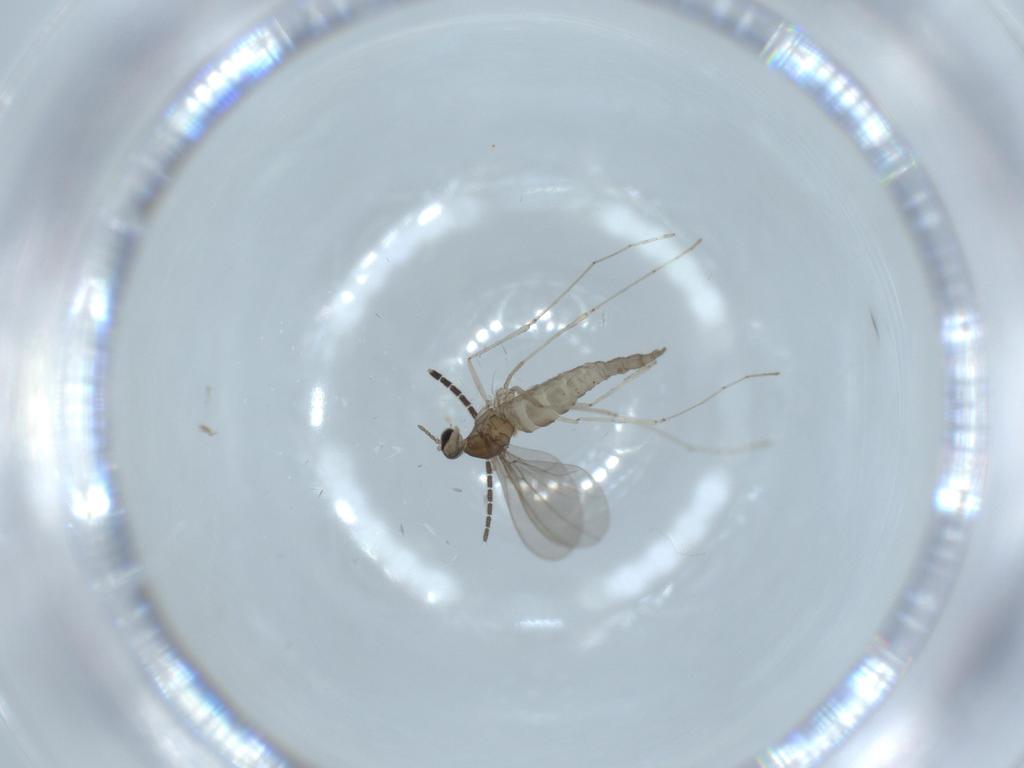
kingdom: Animalia
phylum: Arthropoda
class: Insecta
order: Diptera
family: Cecidomyiidae
